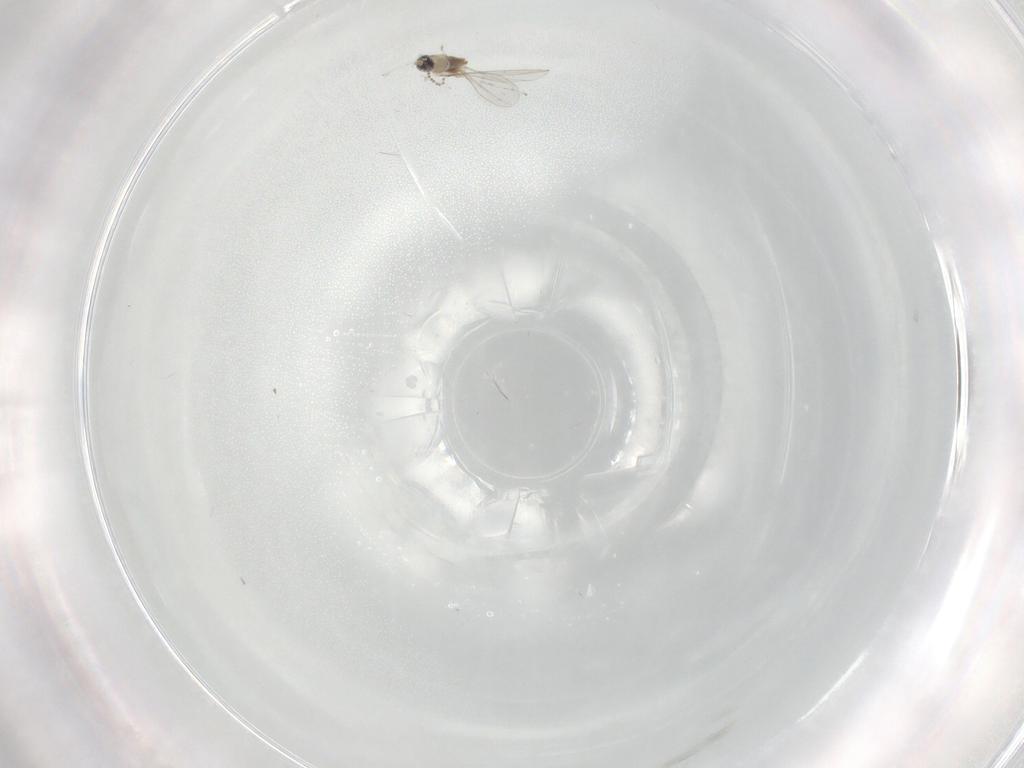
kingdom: Animalia
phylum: Arthropoda
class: Insecta
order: Diptera
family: Cecidomyiidae
